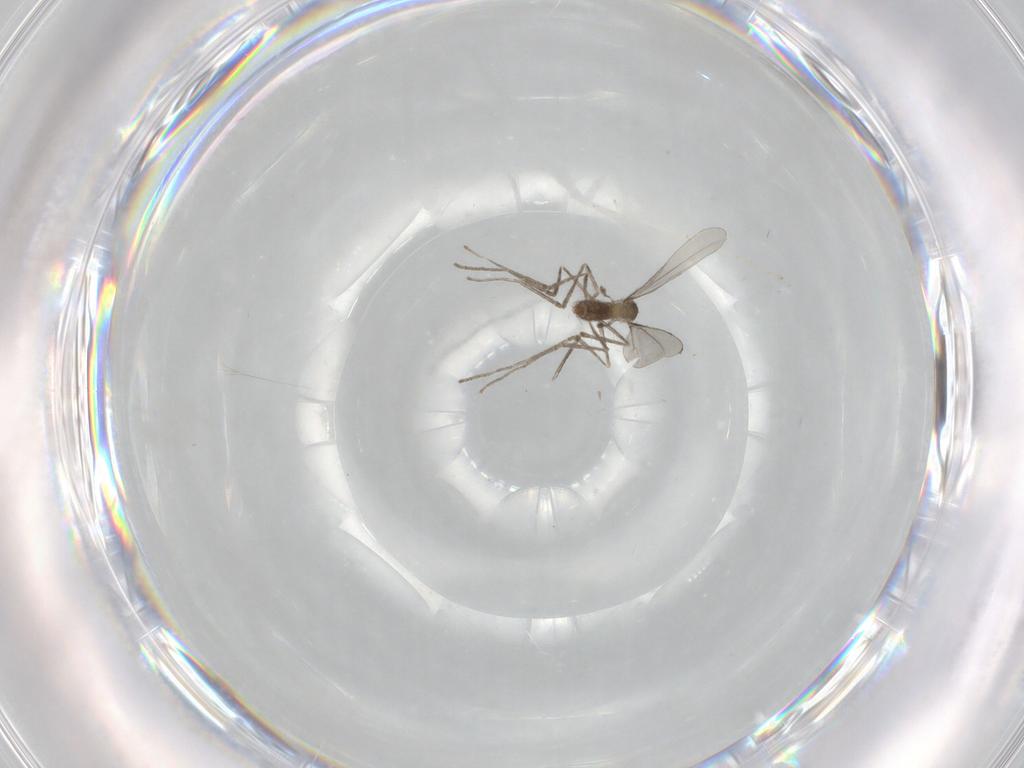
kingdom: Animalia
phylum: Arthropoda
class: Insecta
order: Diptera
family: Cecidomyiidae
